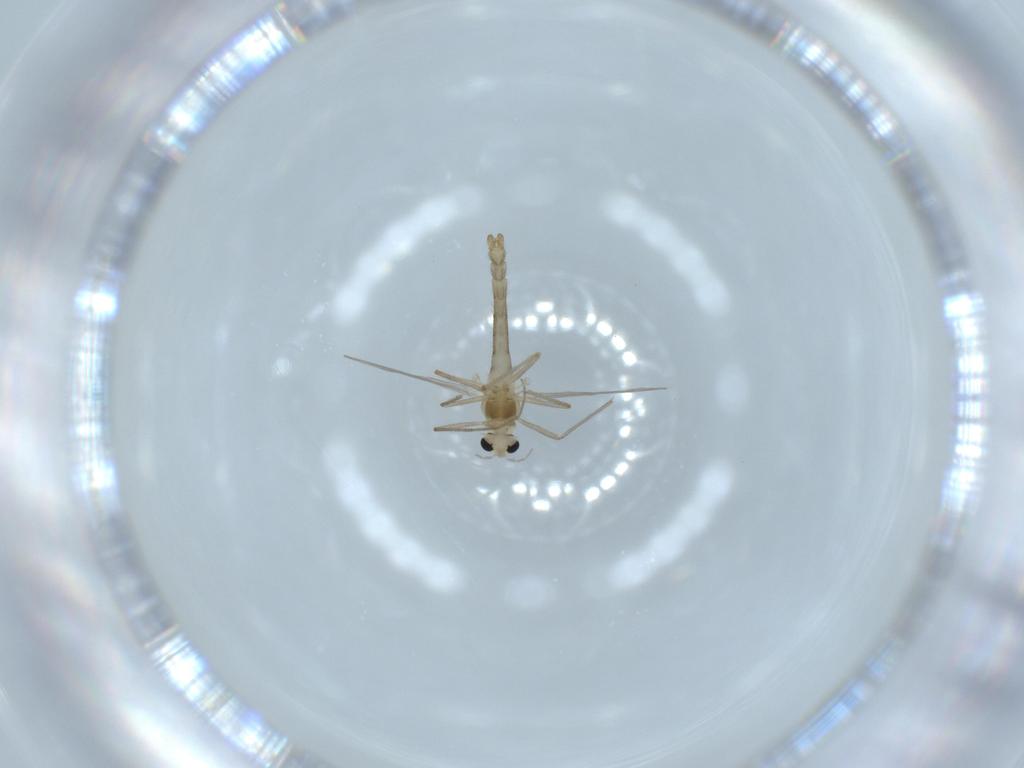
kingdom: Animalia
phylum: Arthropoda
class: Insecta
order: Diptera
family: Chironomidae
